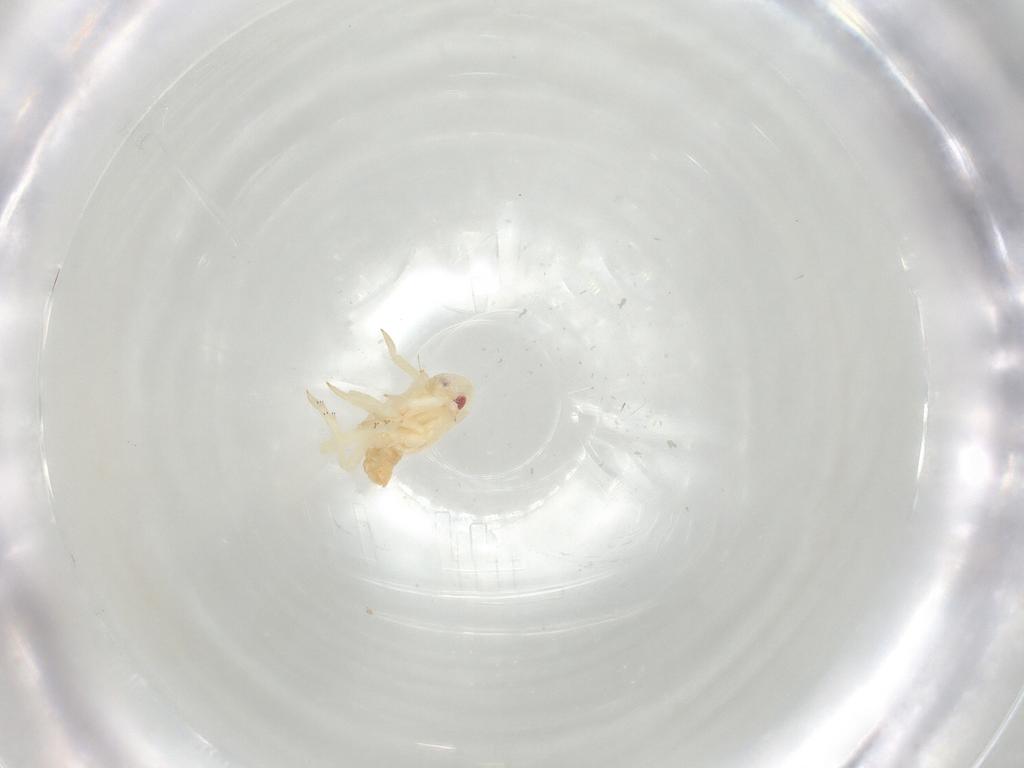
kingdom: Animalia
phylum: Arthropoda
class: Insecta
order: Hemiptera
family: Flatidae
